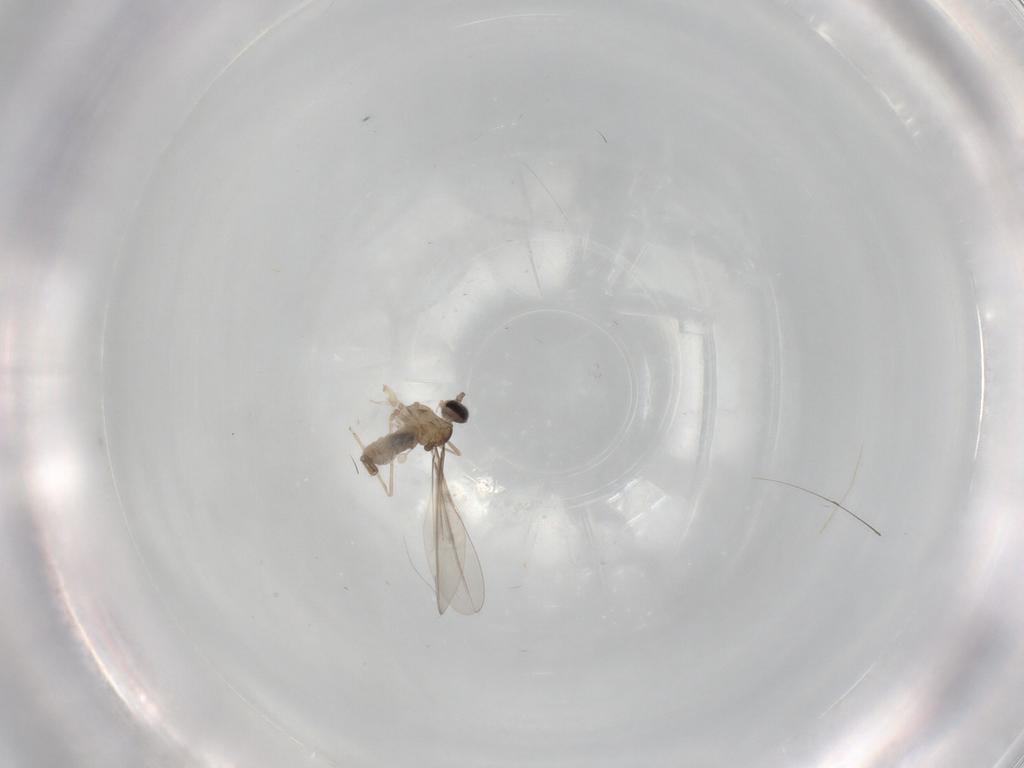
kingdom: Animalia
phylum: Arthropoda
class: Insecta
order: Diptera
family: Cecidomyiidae
